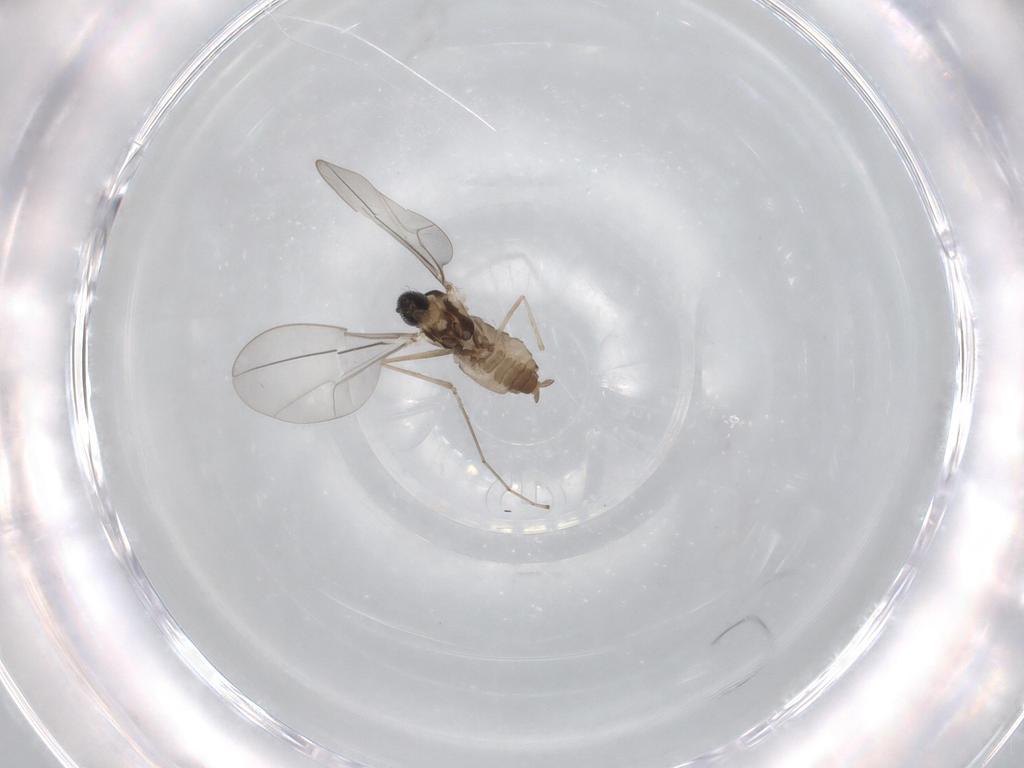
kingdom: Animalia
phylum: Arthropoda
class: Insecta
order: Diptera
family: Cecidomyiidae
